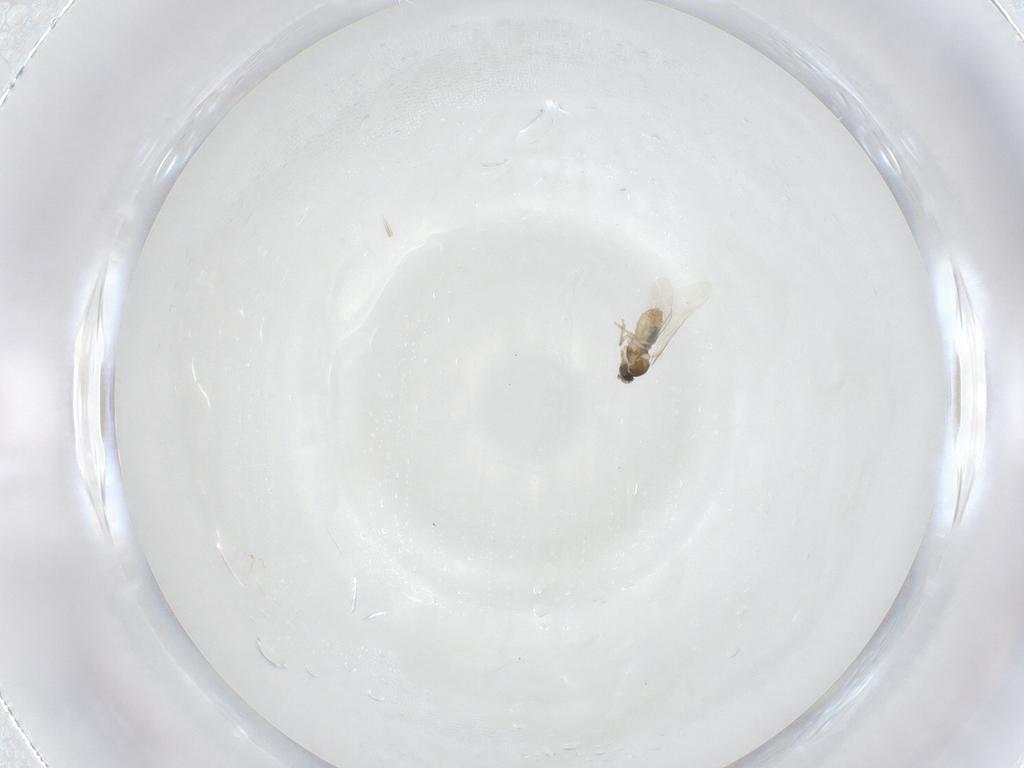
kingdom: Animalia
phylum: Arthropoda
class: Insecta
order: Diptera
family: Cecidomyiidae
